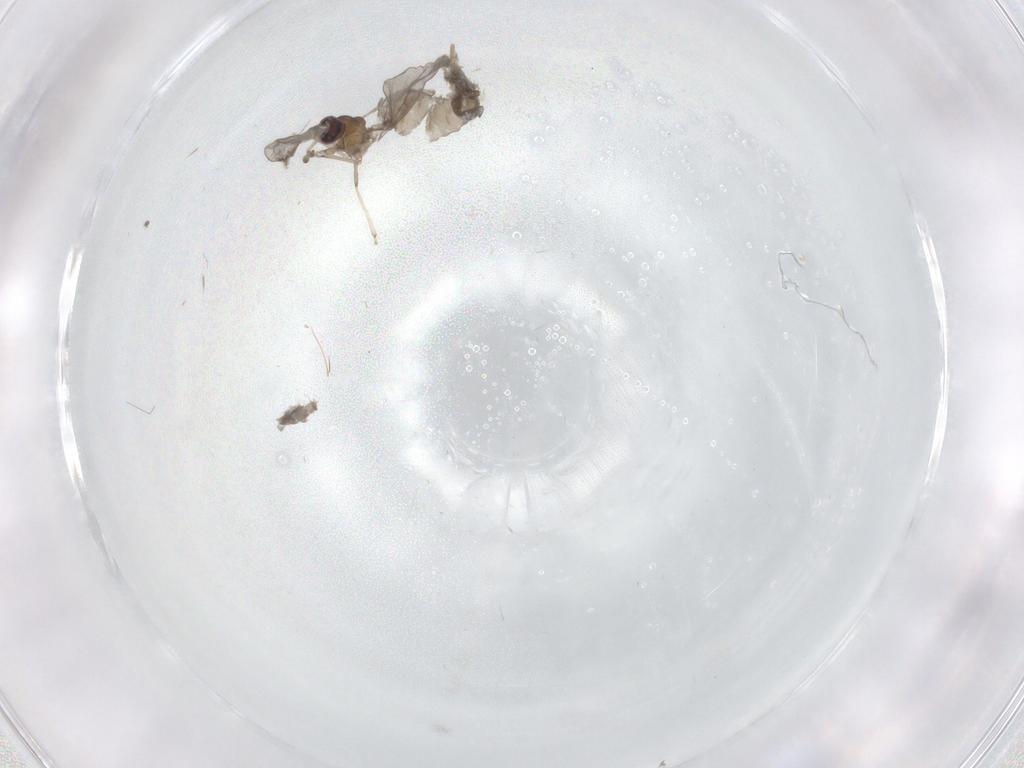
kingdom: Animalia
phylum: Arthropoda
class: Insecta
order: Diptera
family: Cecidomyiidae
